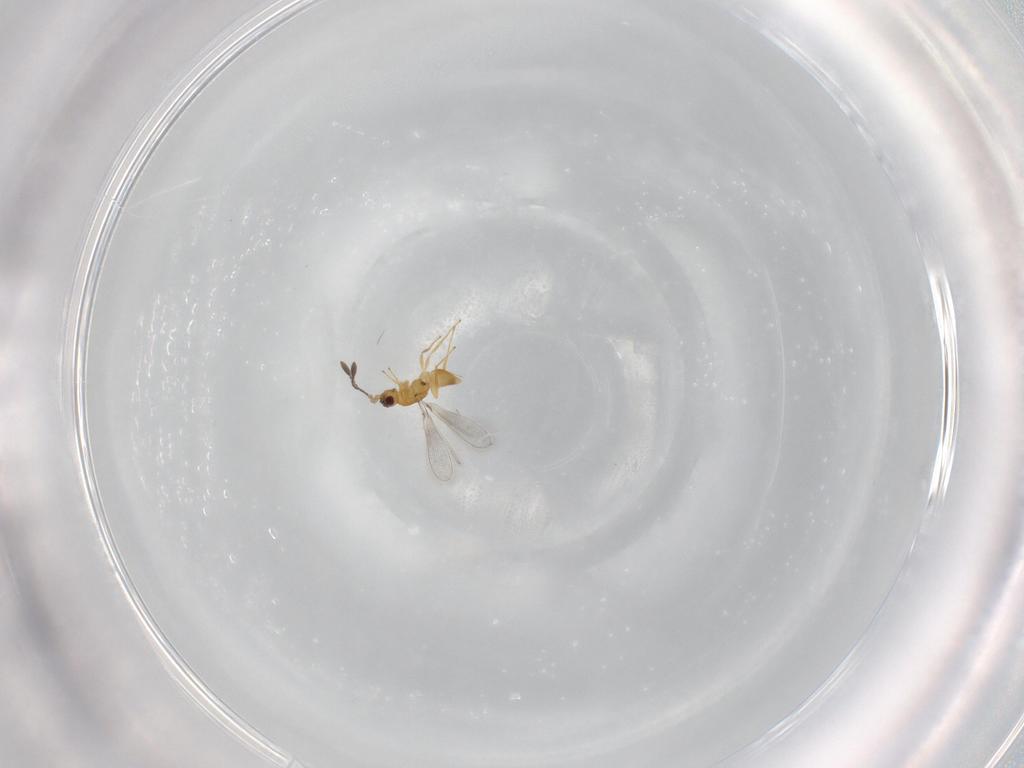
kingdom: Animalia
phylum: Arthropoda
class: Insecta
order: Hymenoptera
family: Mymaridae
